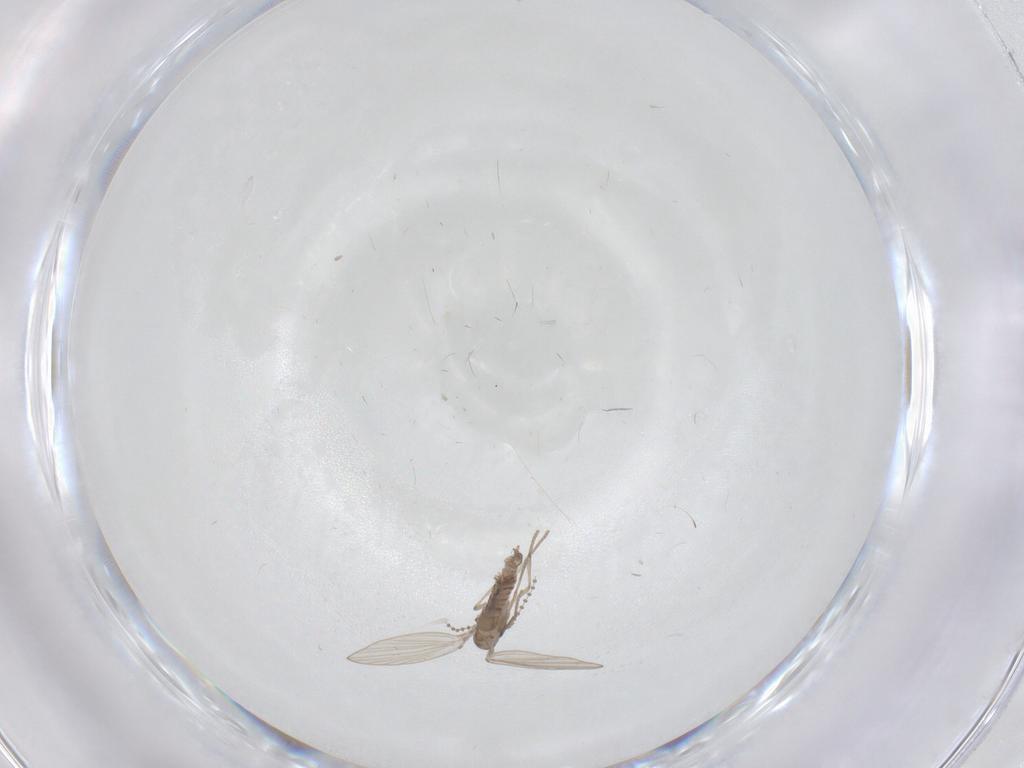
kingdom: Animalia
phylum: Arthropoda
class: Insecta
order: Diptera
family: Psychodidae
